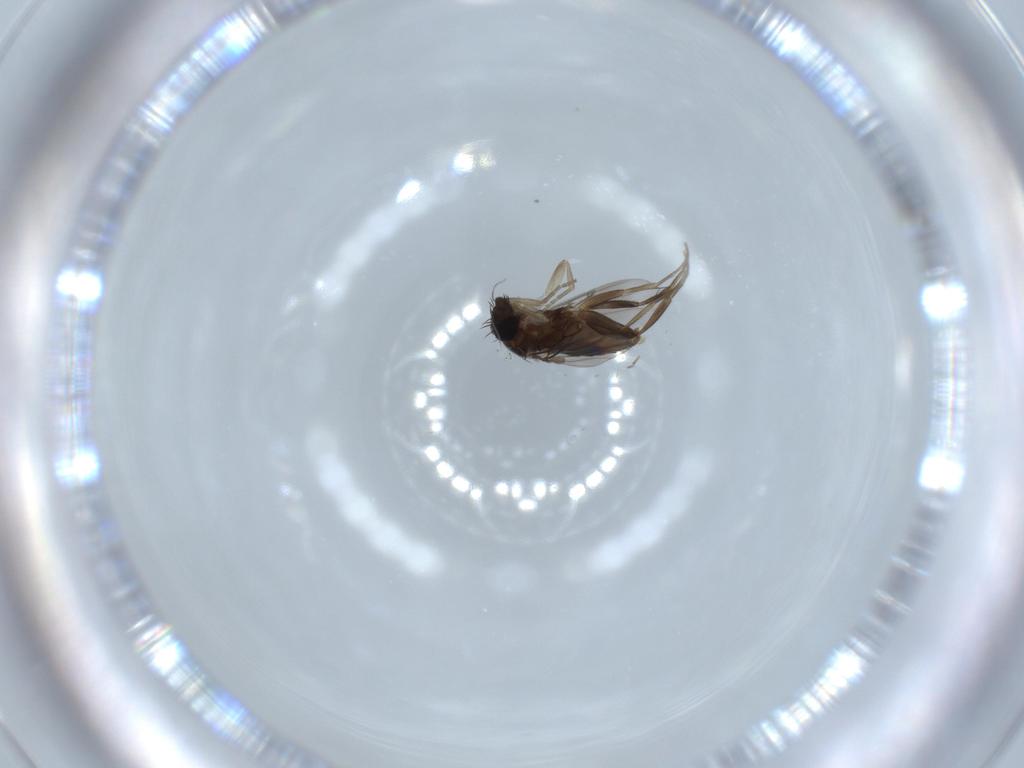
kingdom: Animalia
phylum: Arthropoda
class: Insecta
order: Diptera
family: Phoridae
